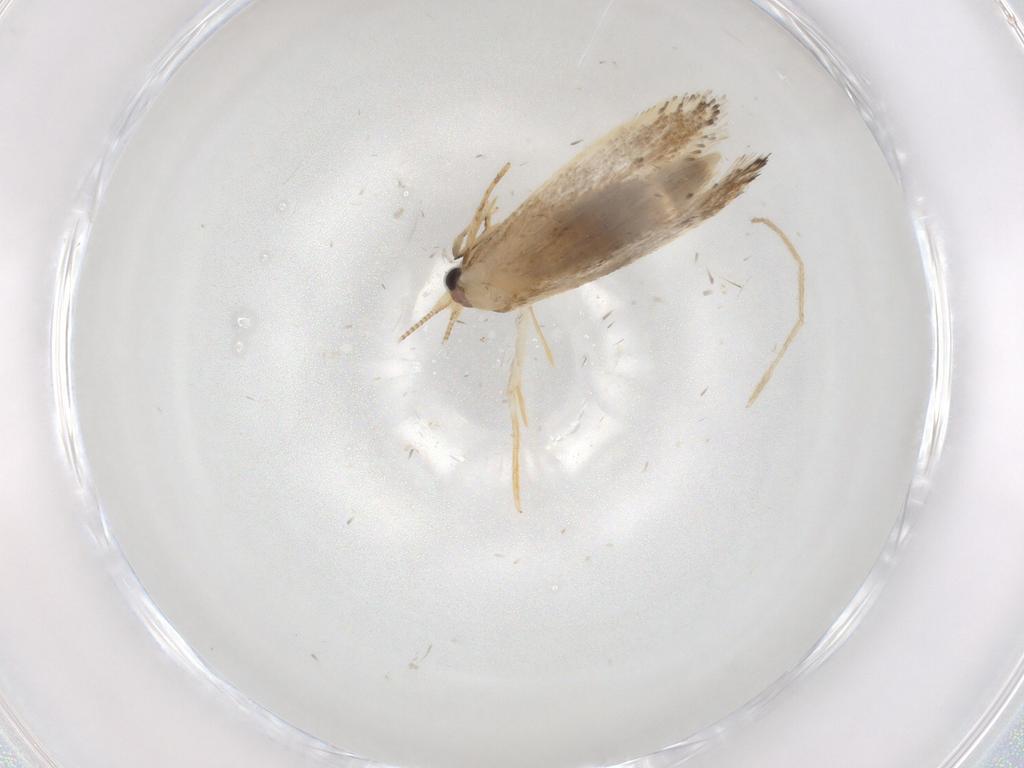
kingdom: Animalia
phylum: Arthropoda
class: Insecta
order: Lepidoptera
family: Nepticulidae
